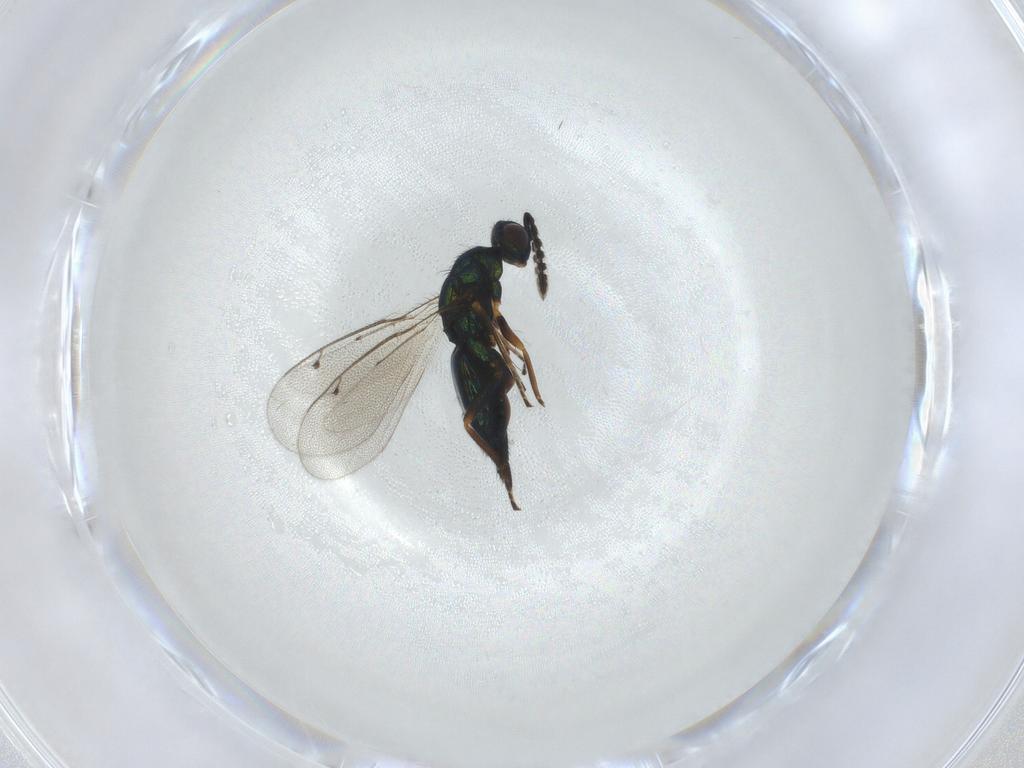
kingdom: Animalia
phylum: Arthropoda
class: Insecta
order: Hymenoptera
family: Eulophidae
